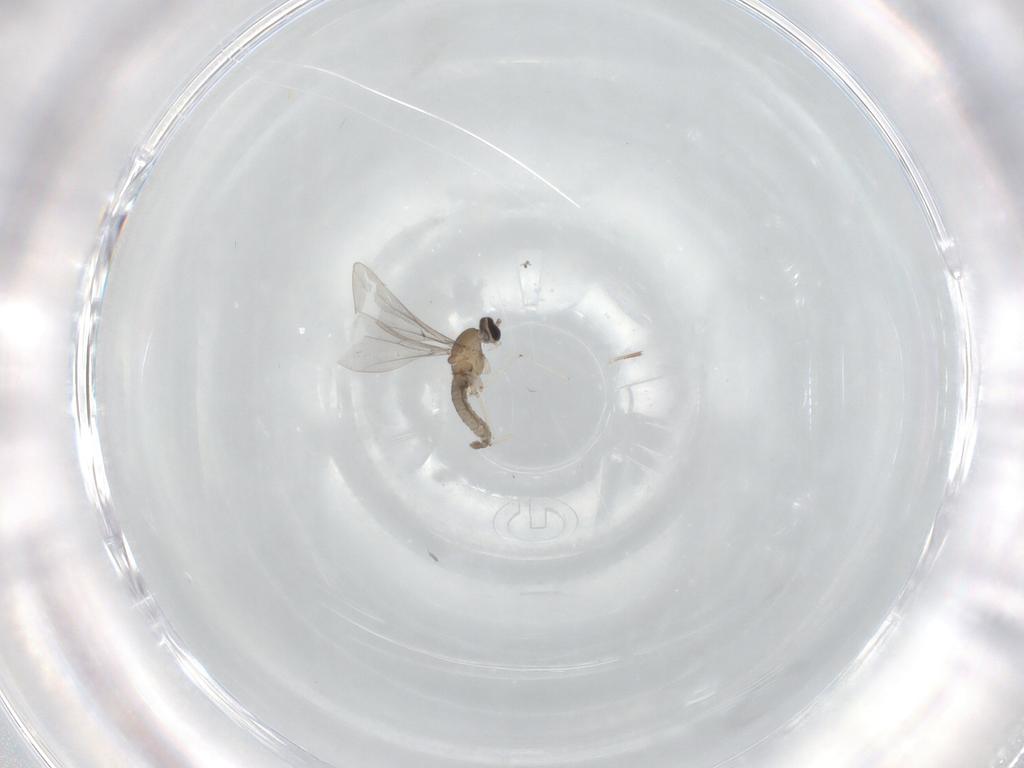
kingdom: Animalia
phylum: Arthropoda
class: Insecta
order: Diptera
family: Cecidomyiidae
